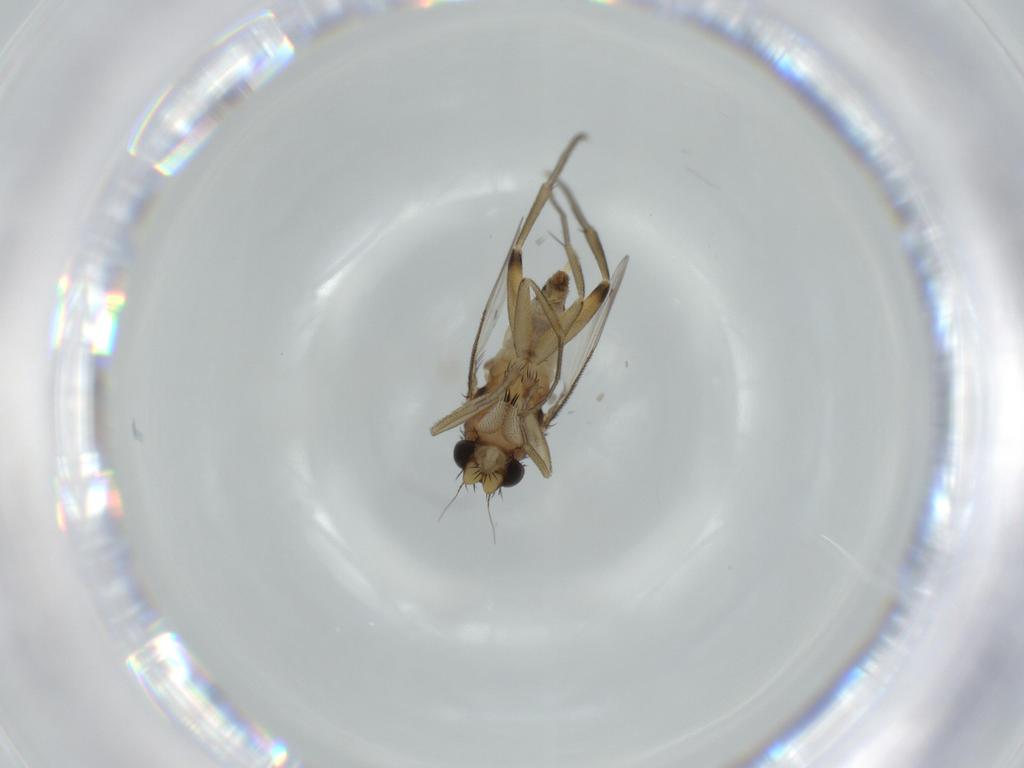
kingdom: Animalia
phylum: Arthropoda
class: Insecta
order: Diptera
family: Phoridae
